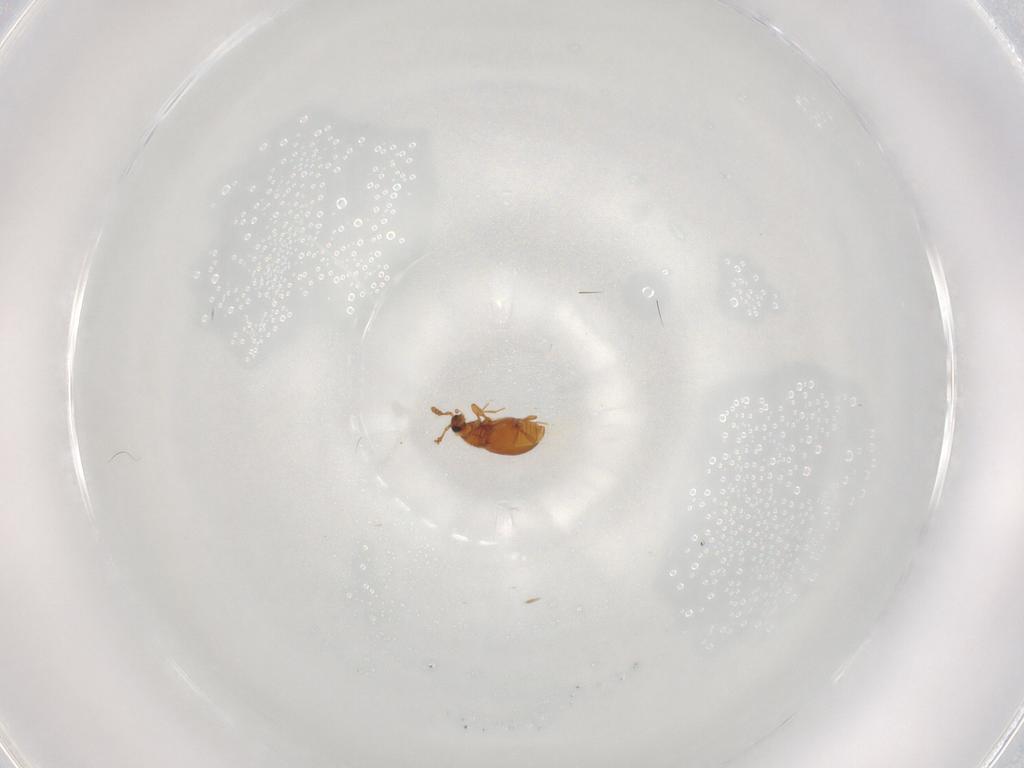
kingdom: Animalia
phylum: Arthropoda
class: Insecta
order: Coleoptera
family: Staphylinidae
